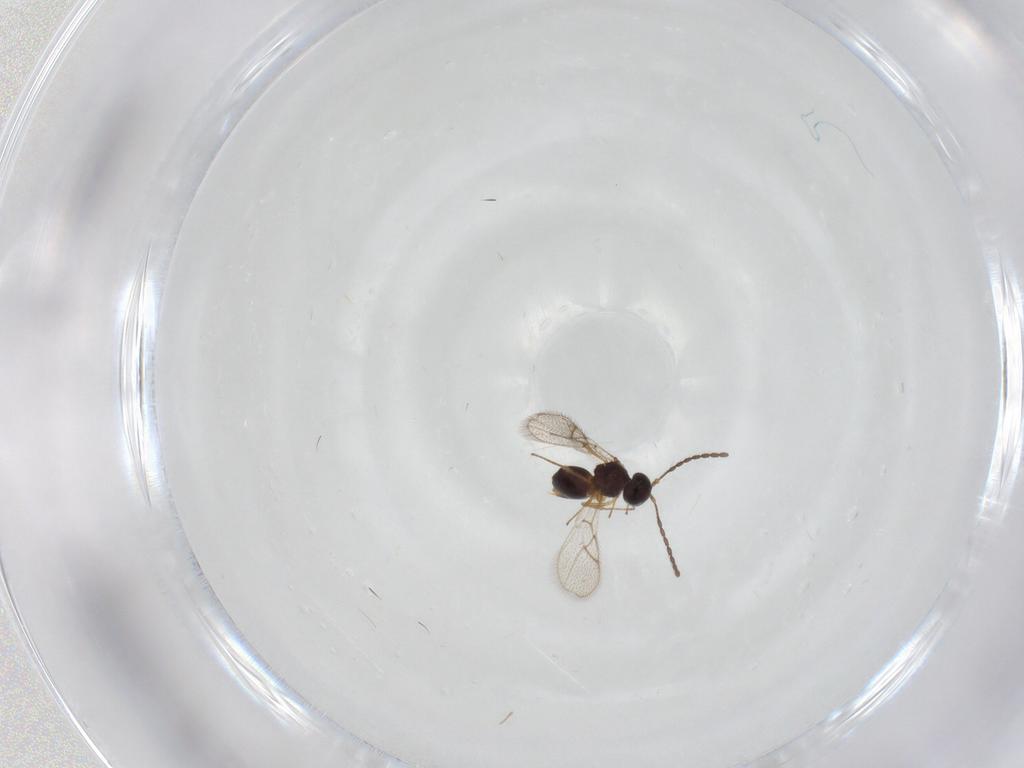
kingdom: Animalia
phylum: Arthropoda
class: Insecta
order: Hymenoptera
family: Figitidae
